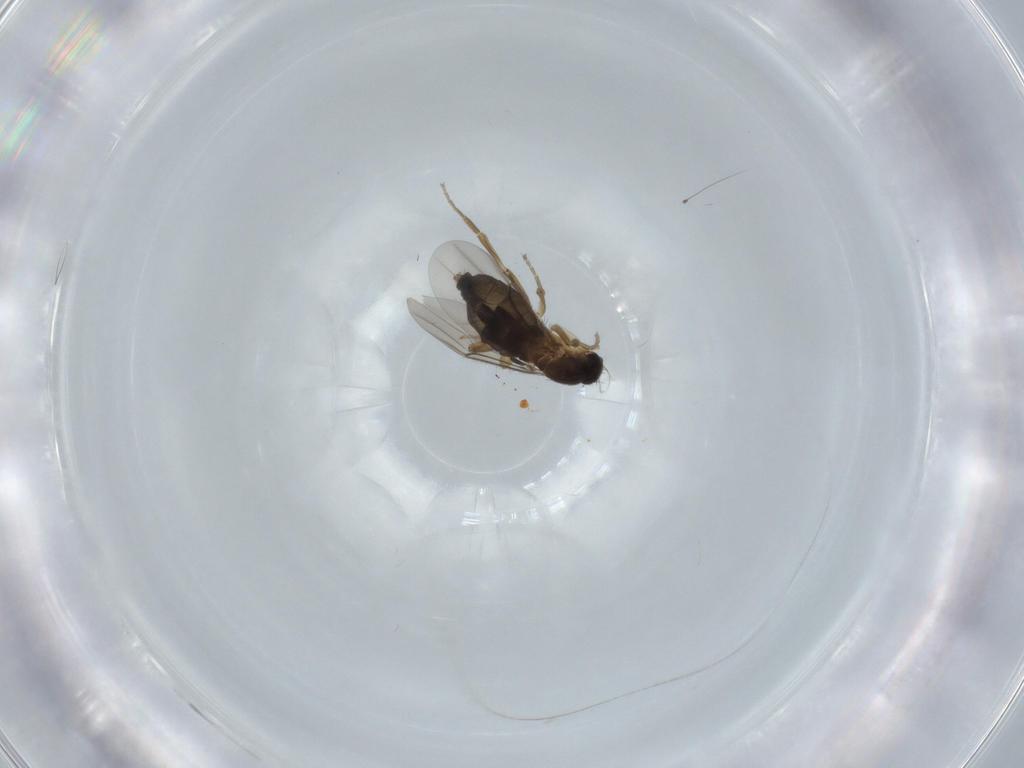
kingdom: Animalia
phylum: Arthropoda
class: Insecta
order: Diptera
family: Phoridae
